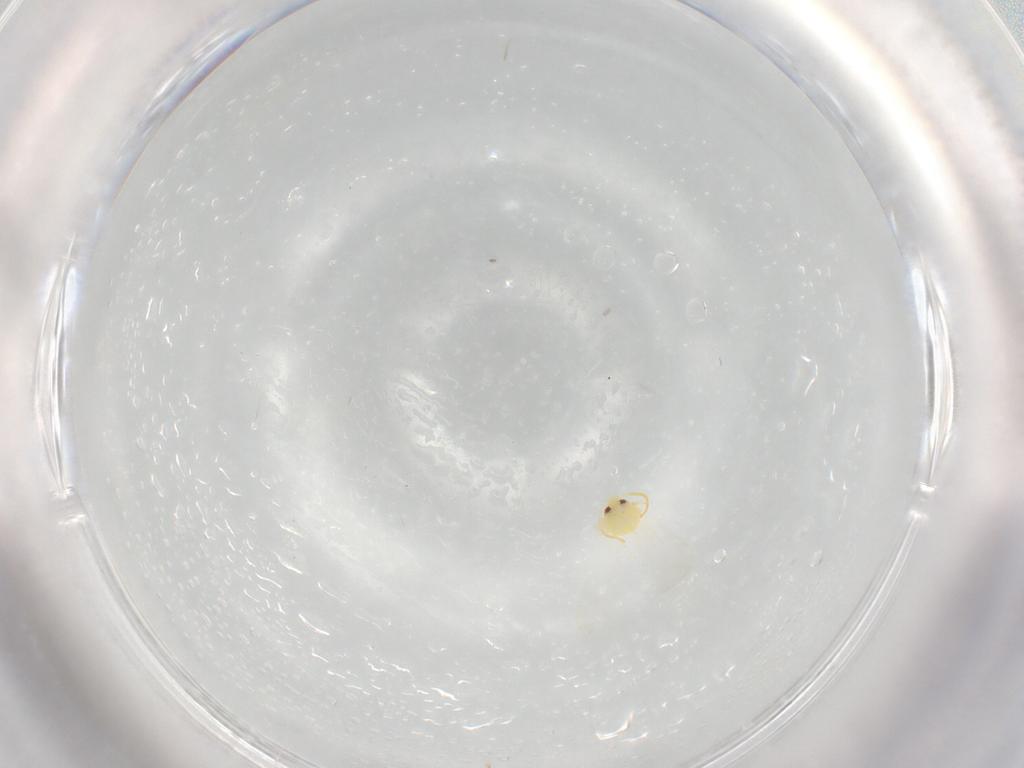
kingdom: Animalia
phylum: Arthropoda
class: Insecta
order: Hemiptera
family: Aleyrodidae
